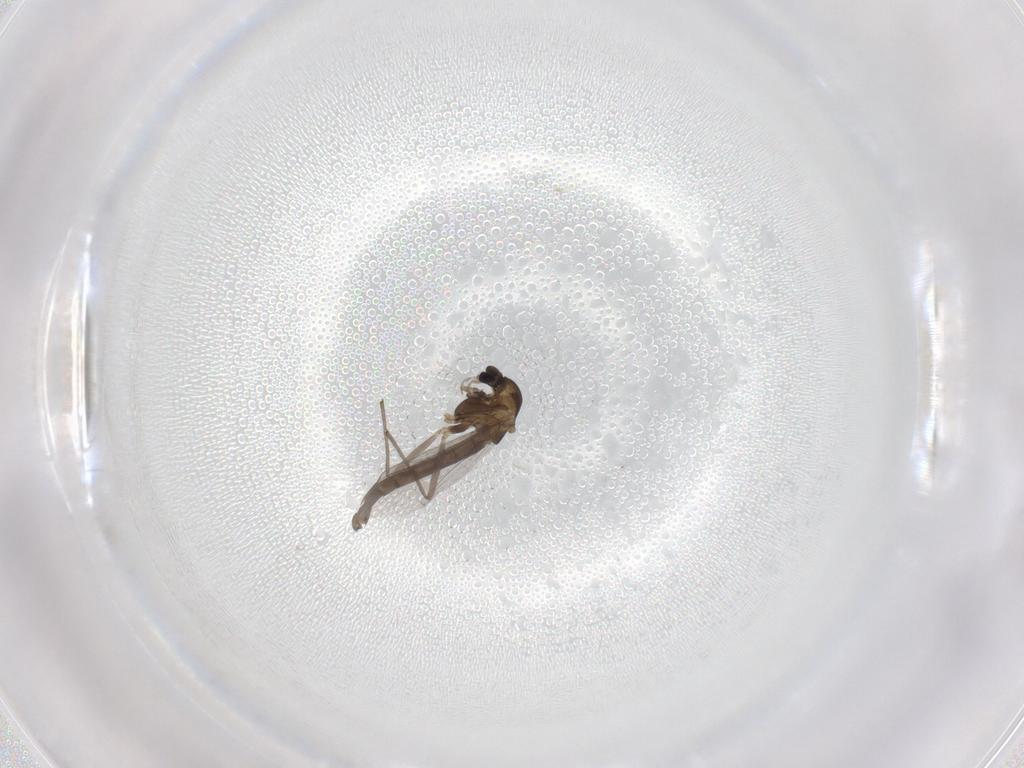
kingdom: Animalia
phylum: Arthropoda
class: Insecta
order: Diptera
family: Chironomidae
